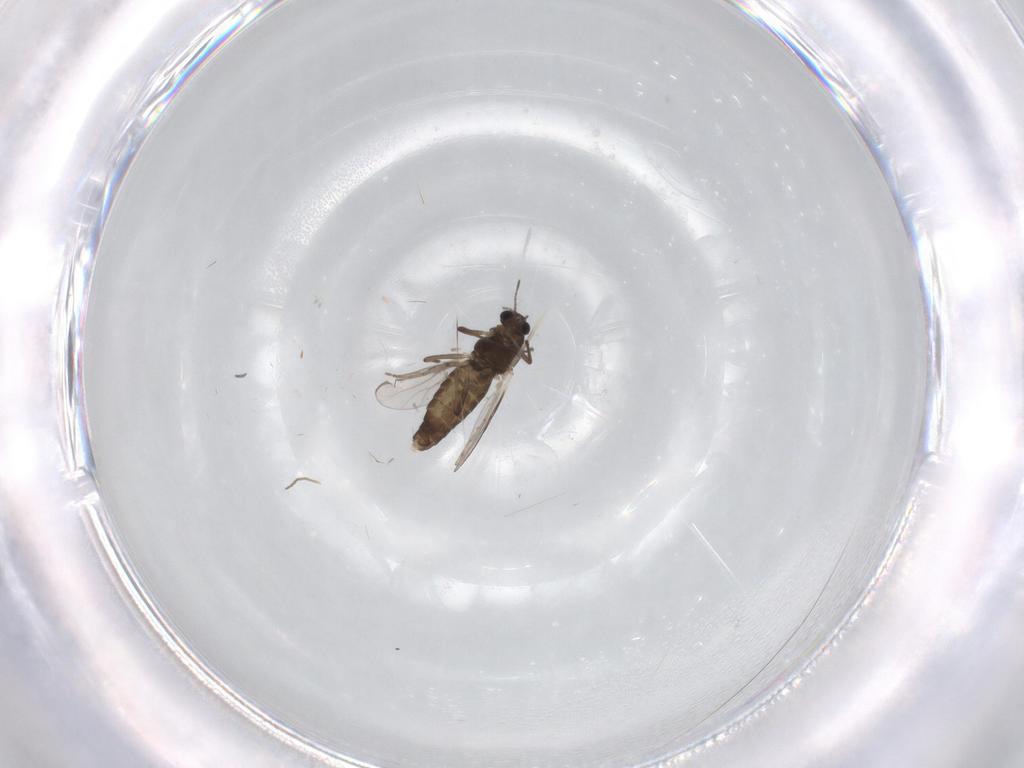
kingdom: Animalia
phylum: Arthropoda
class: Insecta
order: Diptera
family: Chironomidae
